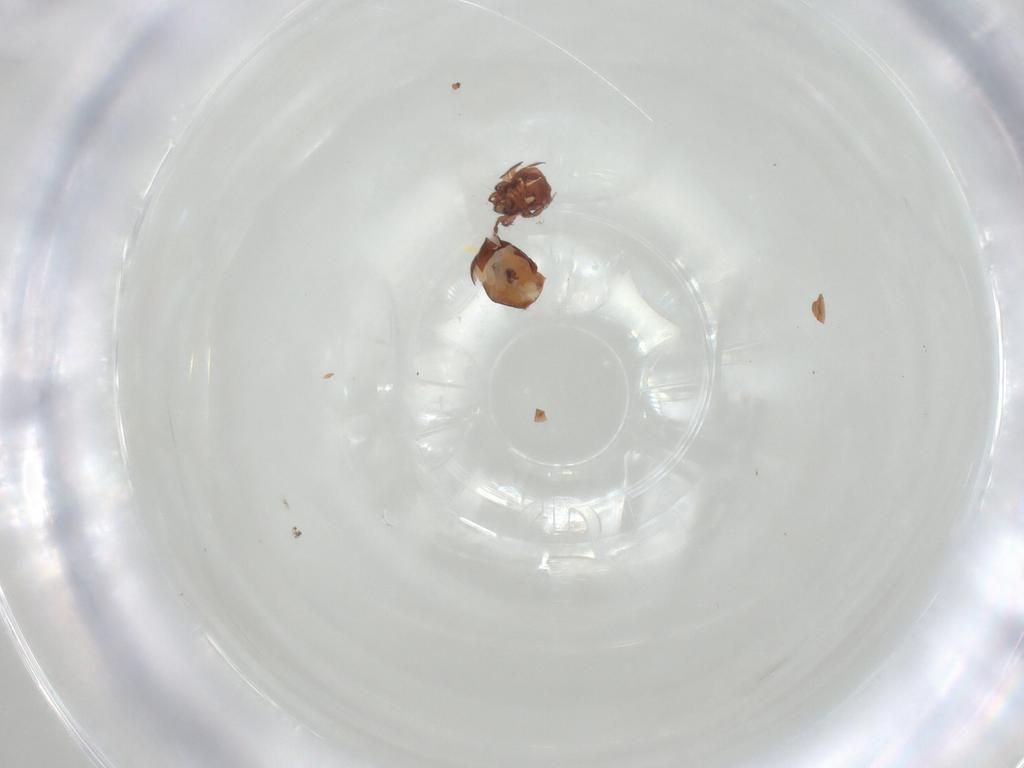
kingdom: Animalia
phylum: Arthropoda
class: Arachnida
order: Sarcoptiformes
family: Humerobatidae
